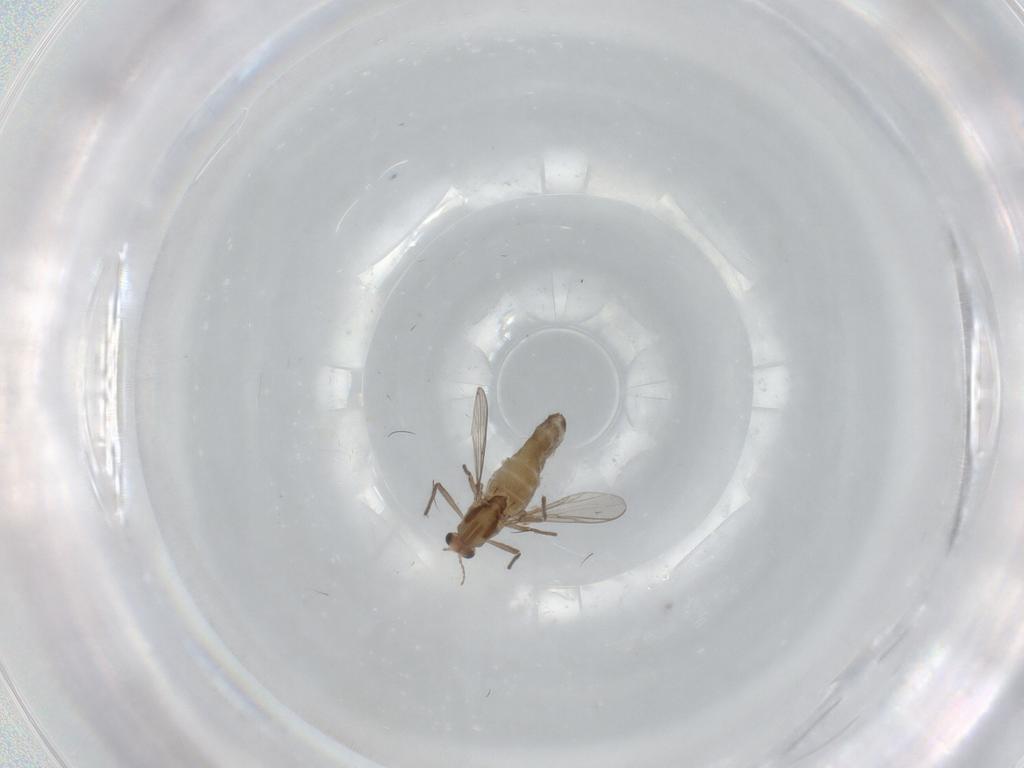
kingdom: Animalia
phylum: Arthropoda
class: Insecta
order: Diptera
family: Chironomidae
